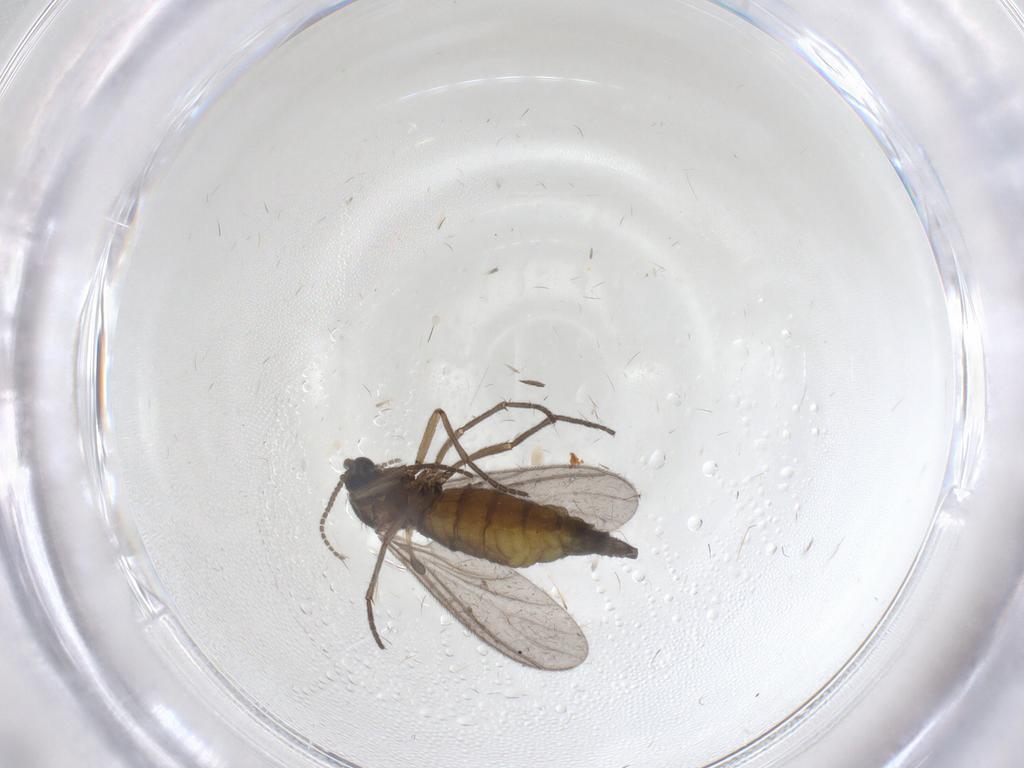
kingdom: Animalia
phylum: Arthropoda
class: Insecta
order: Diptera
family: Sciaridae
